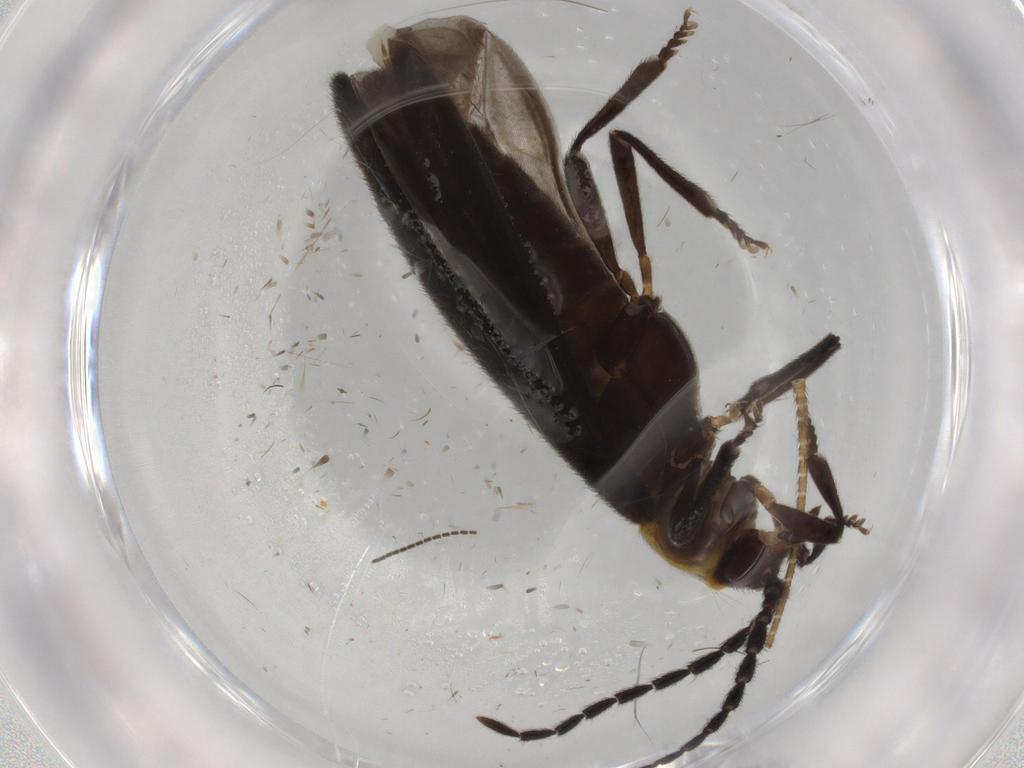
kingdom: Animalia
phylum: Arthropoda
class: Insecta
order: Coleoptera
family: Lycidae
